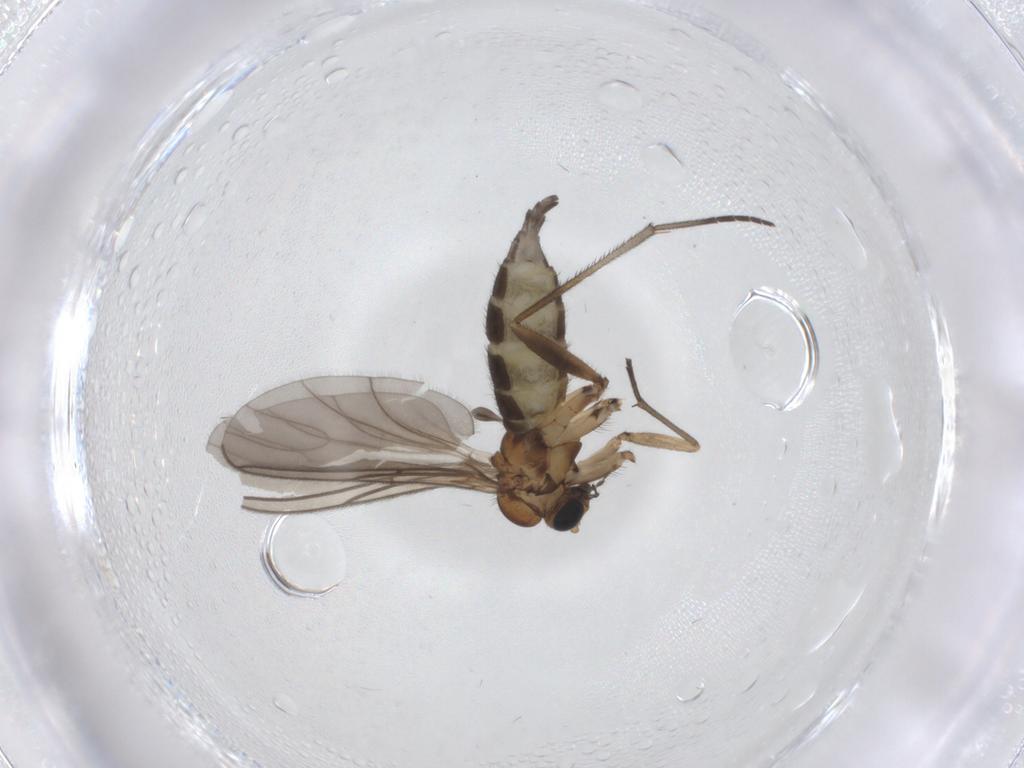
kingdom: Animalia
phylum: Arthropoda
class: Insecta
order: Diptera
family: Sciaridae
